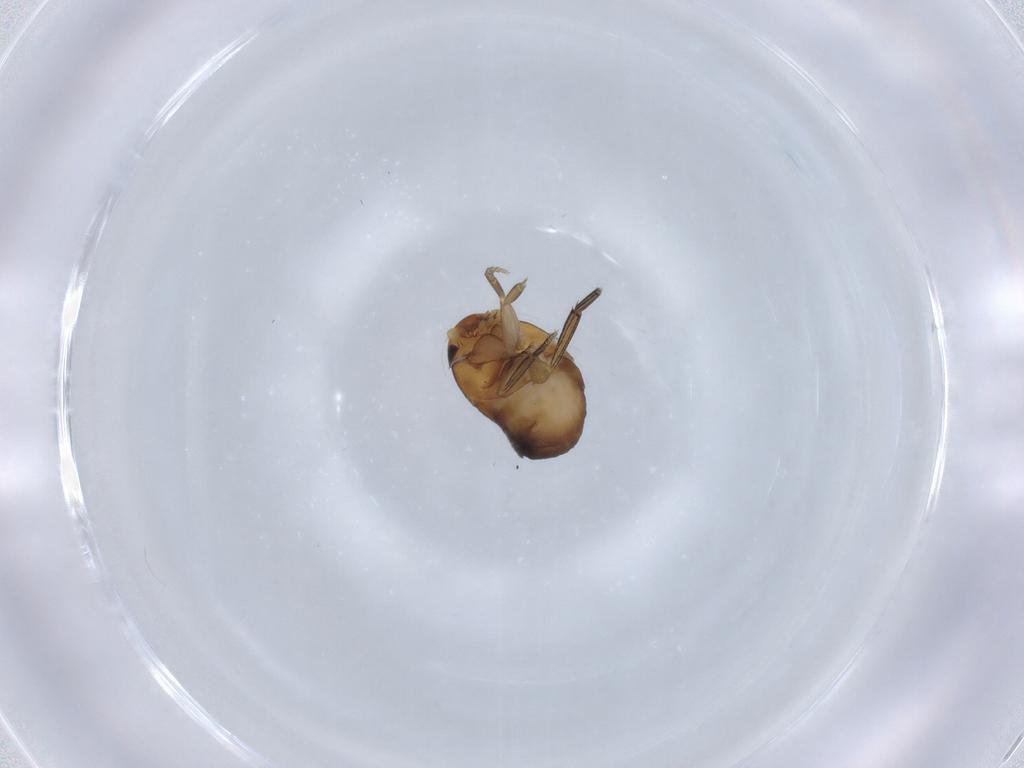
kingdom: Animalia
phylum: Arthropoda
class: Insecta
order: Diptera
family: Phoridae
